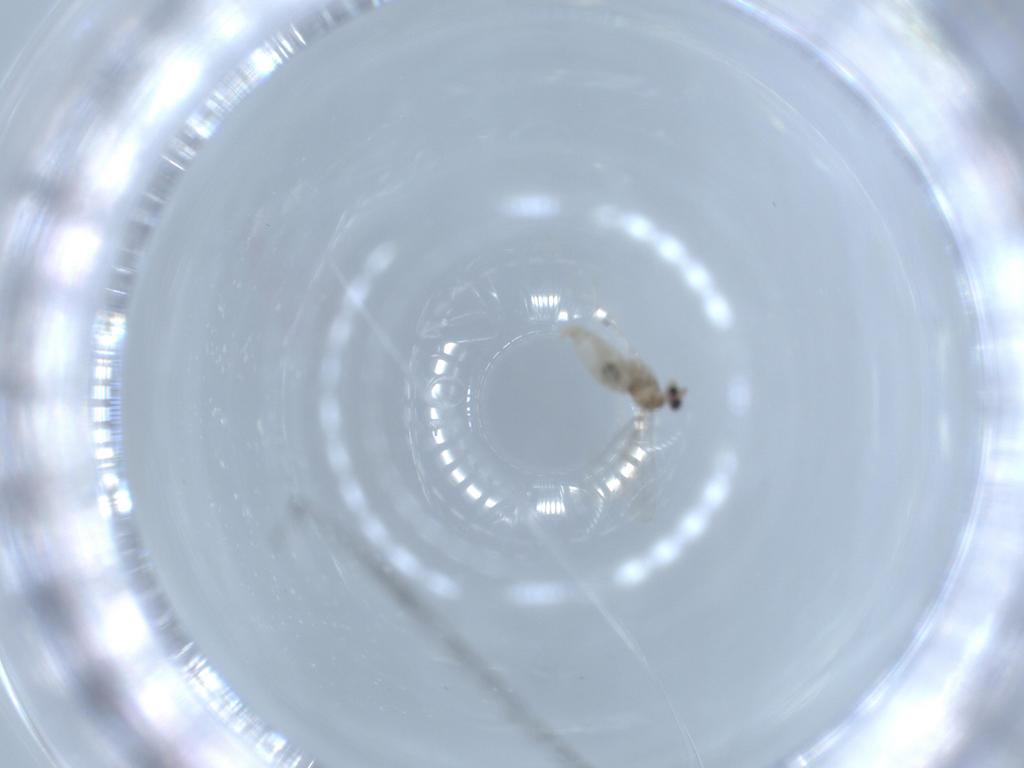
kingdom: Animalia
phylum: Arthropoda
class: Insecta
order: Diptera
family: Cecidomyiidae
